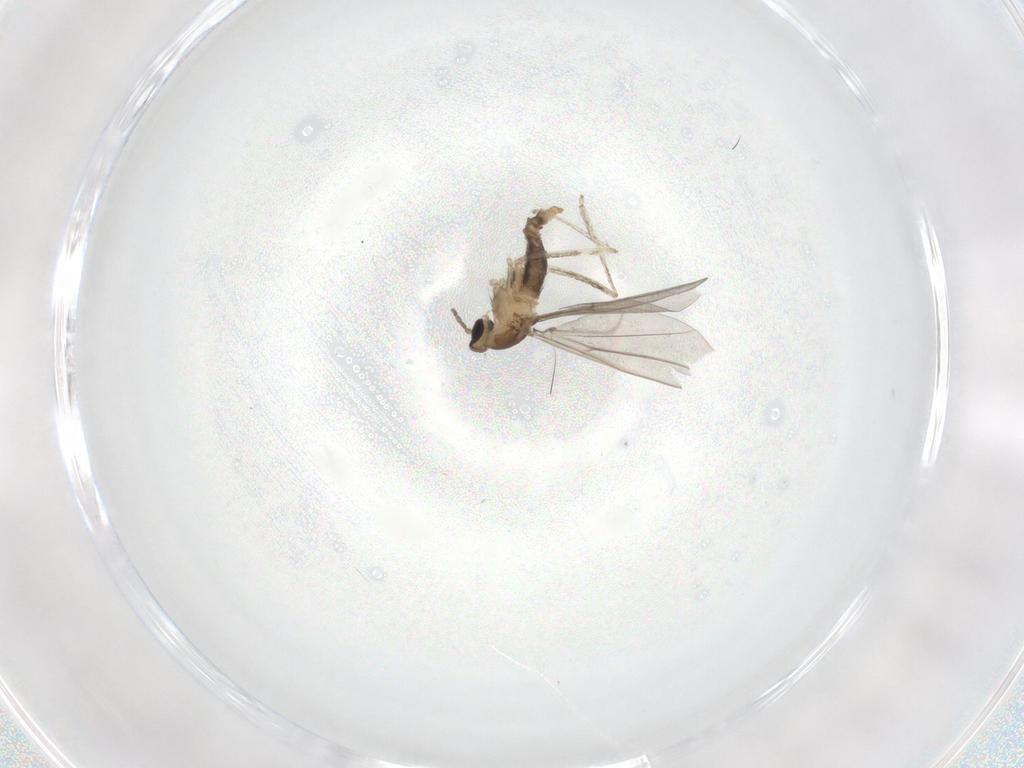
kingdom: Animalia
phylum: Arthropoda
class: Insecta
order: Diptera
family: Cecidomyiidae
